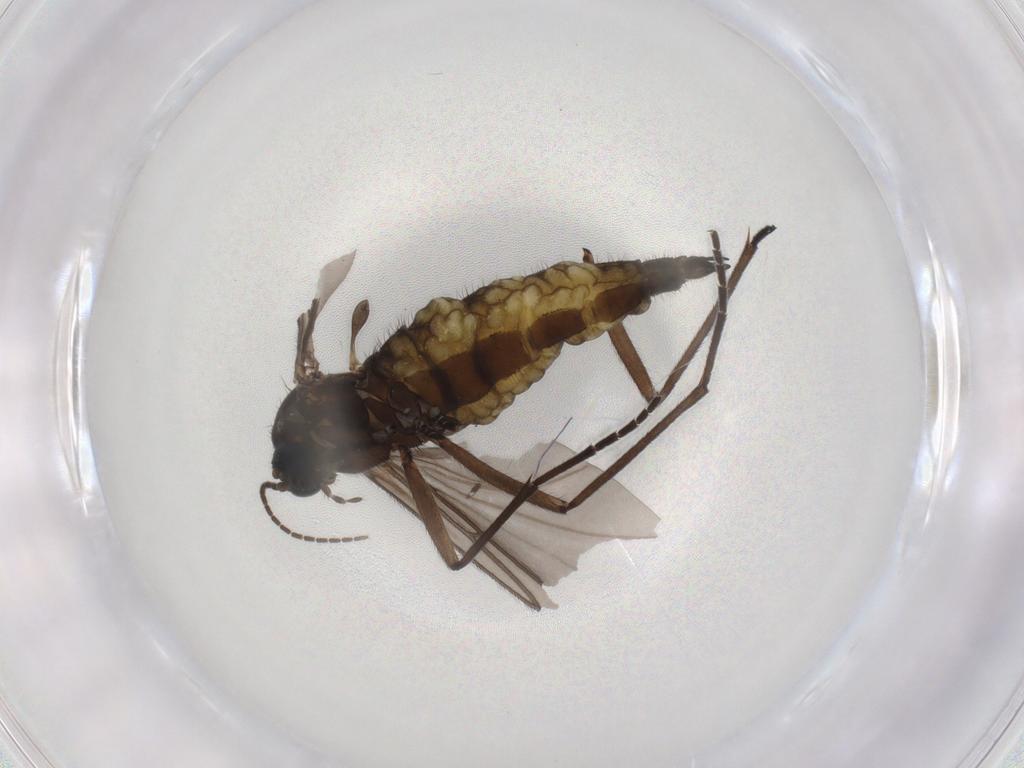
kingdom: Animalia
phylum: Arthropoda
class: Insecta
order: Diptera
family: Sciaridae
